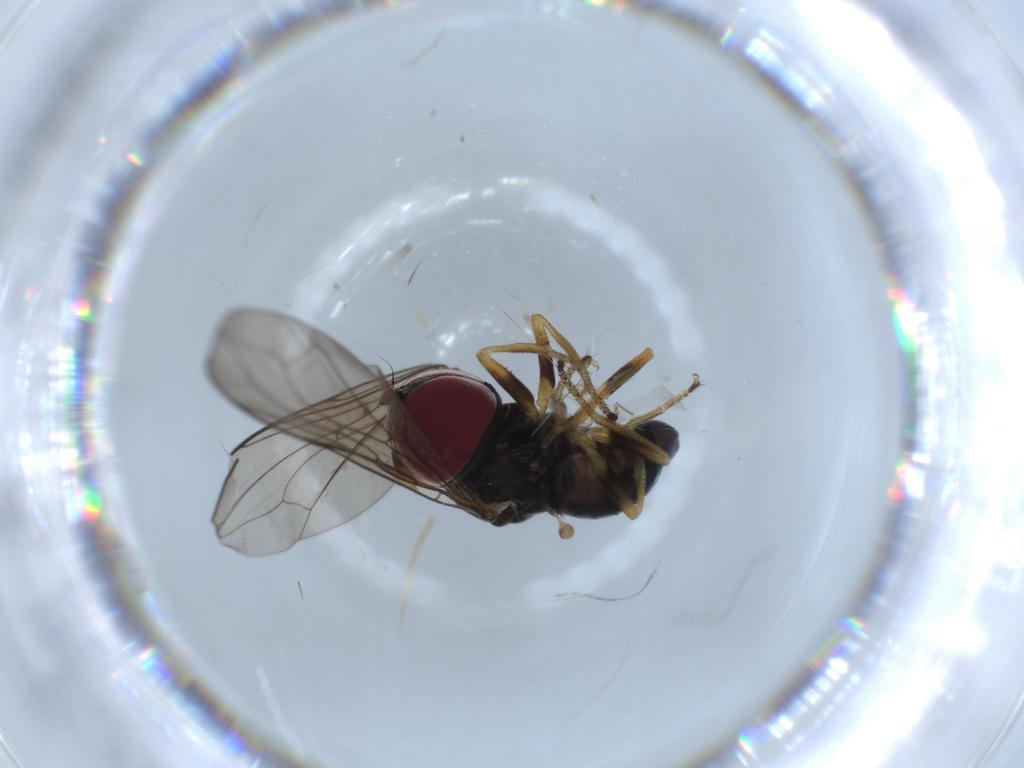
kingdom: Animalia
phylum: Arthropoda
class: Insecta
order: Diptera
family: Pipunculidae
